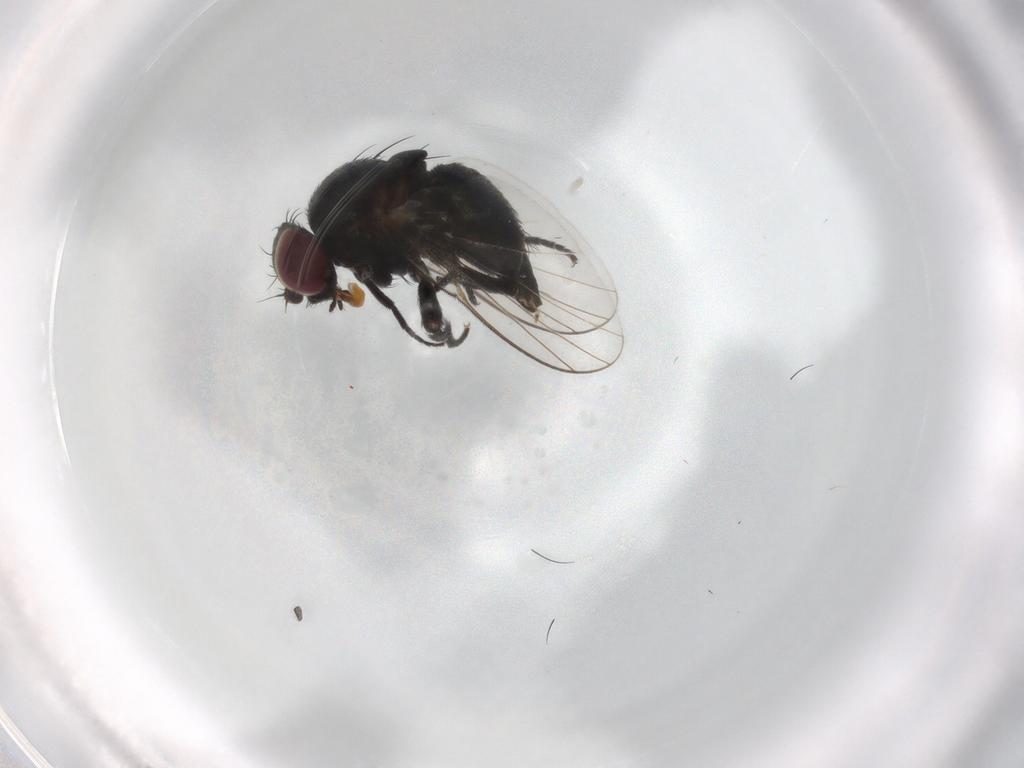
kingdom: Animalia
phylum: Arthropoda
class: Insecta
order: Diptera
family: Agromyzidae
